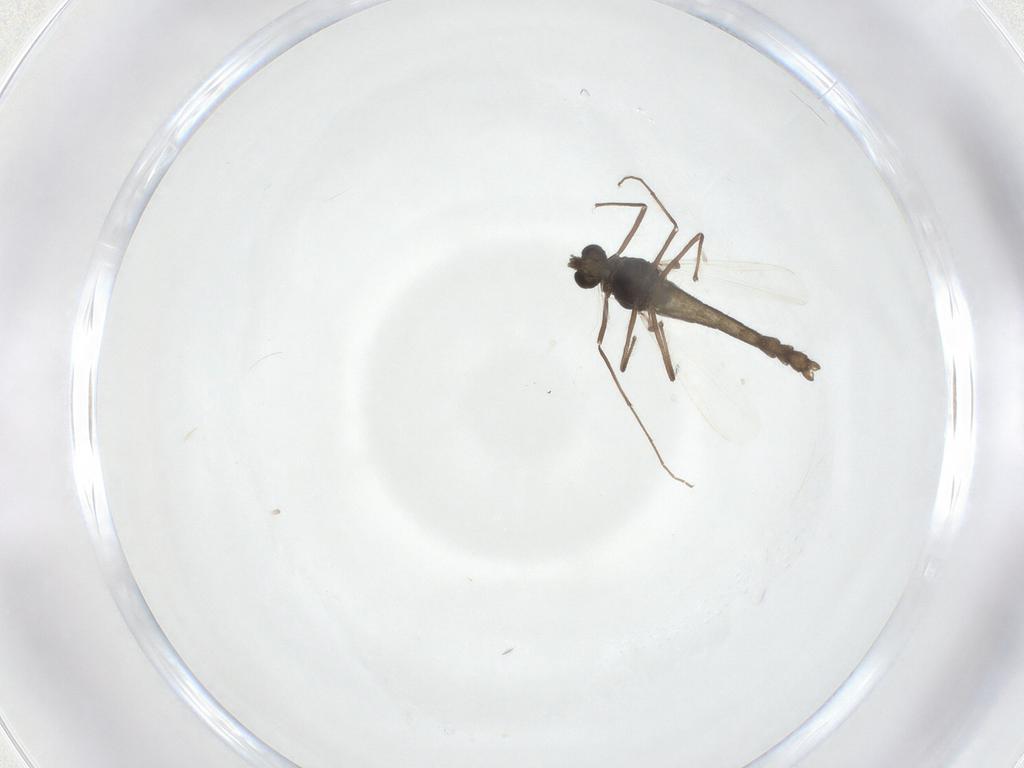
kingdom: Animalia
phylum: Arthropoda
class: Insecta
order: Diptera
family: Chironomidae
